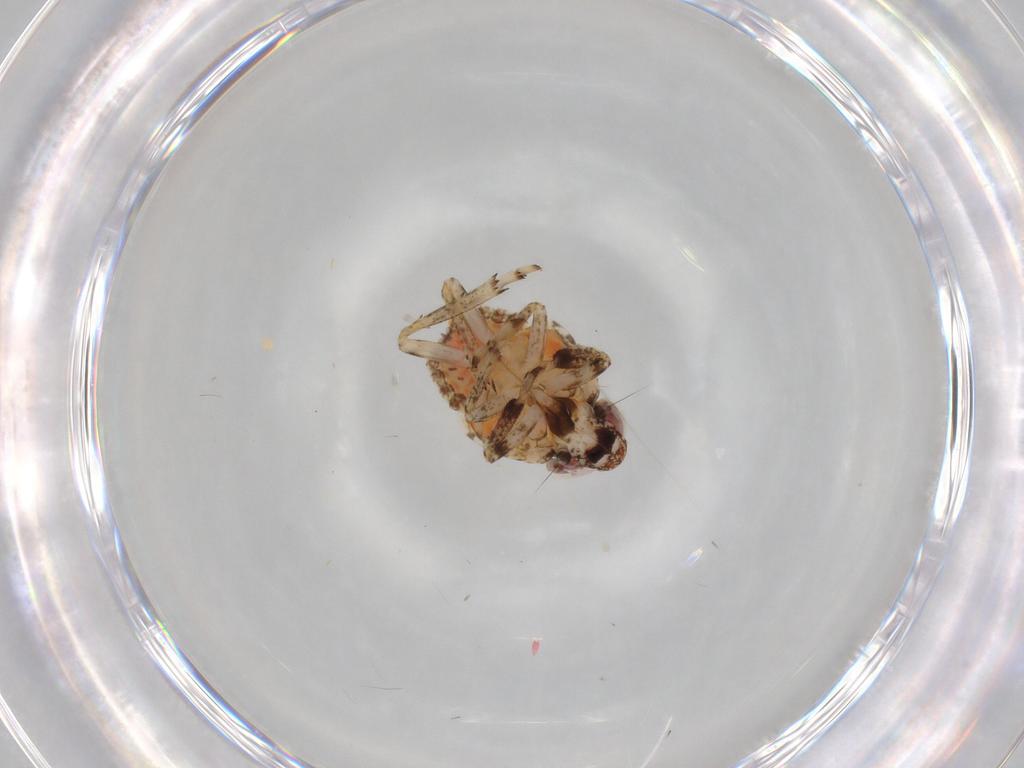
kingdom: Animalia
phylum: Arthropoda
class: Insecta
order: Hemiptera
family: Issidae
